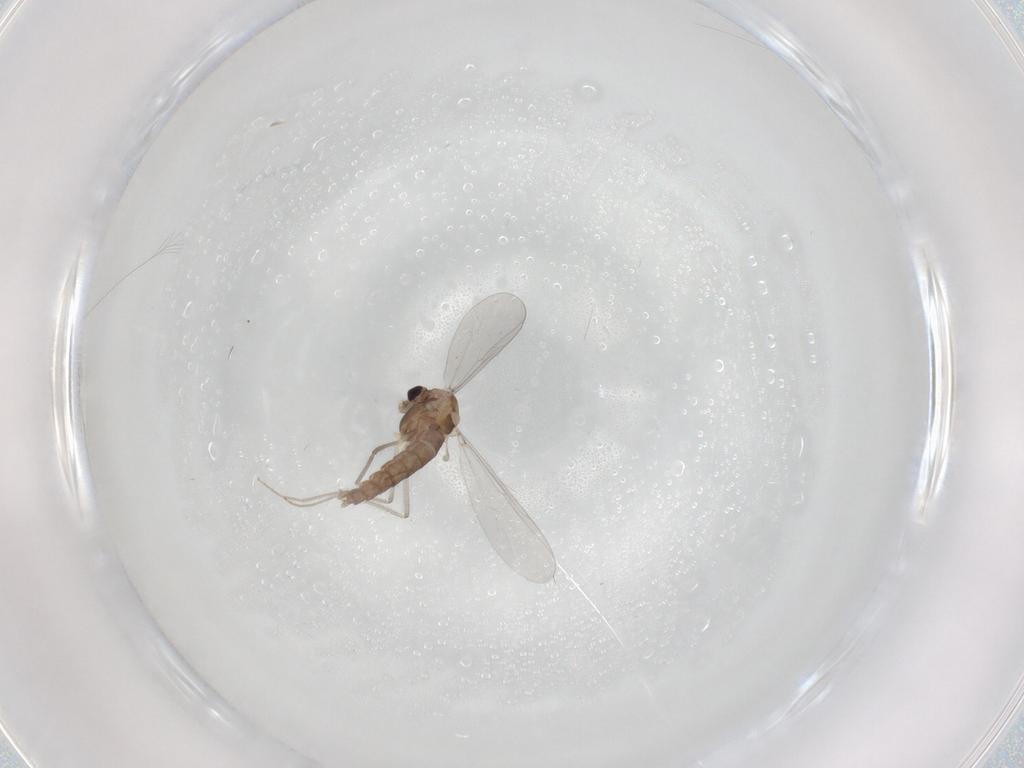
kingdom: Animalia
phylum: Arthropoda
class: Insecta
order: Diptera
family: Chironomidae
